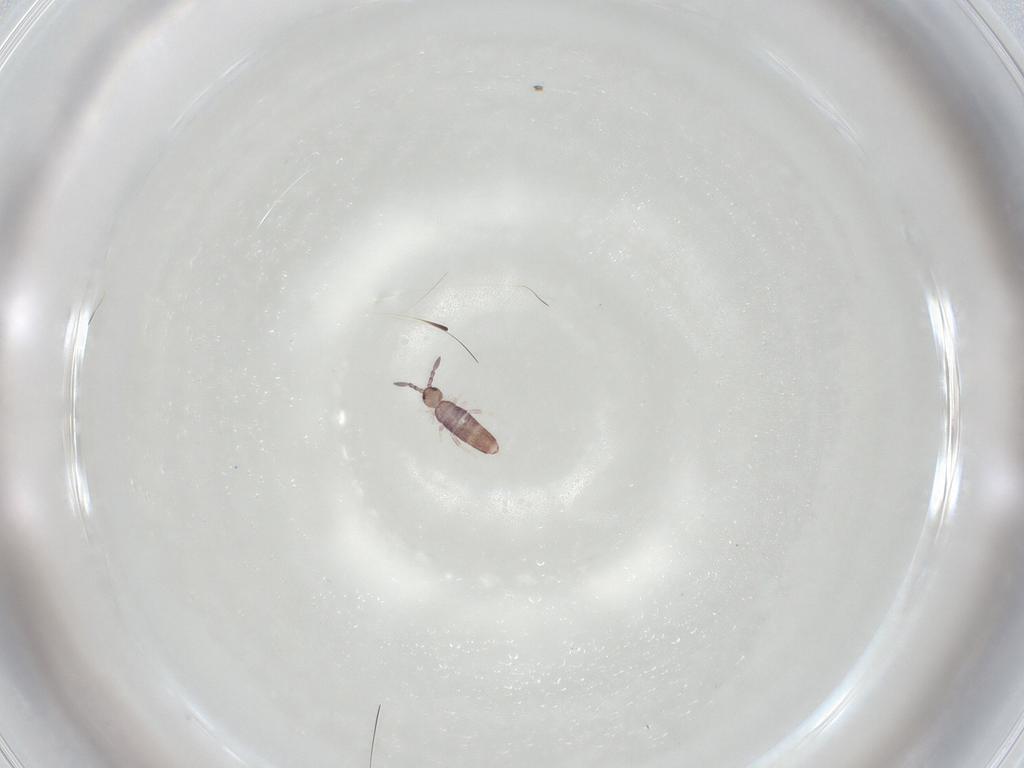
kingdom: Animalia
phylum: Arthropoda
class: Collembola
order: Entomobryomorpha
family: Entomobryidae
